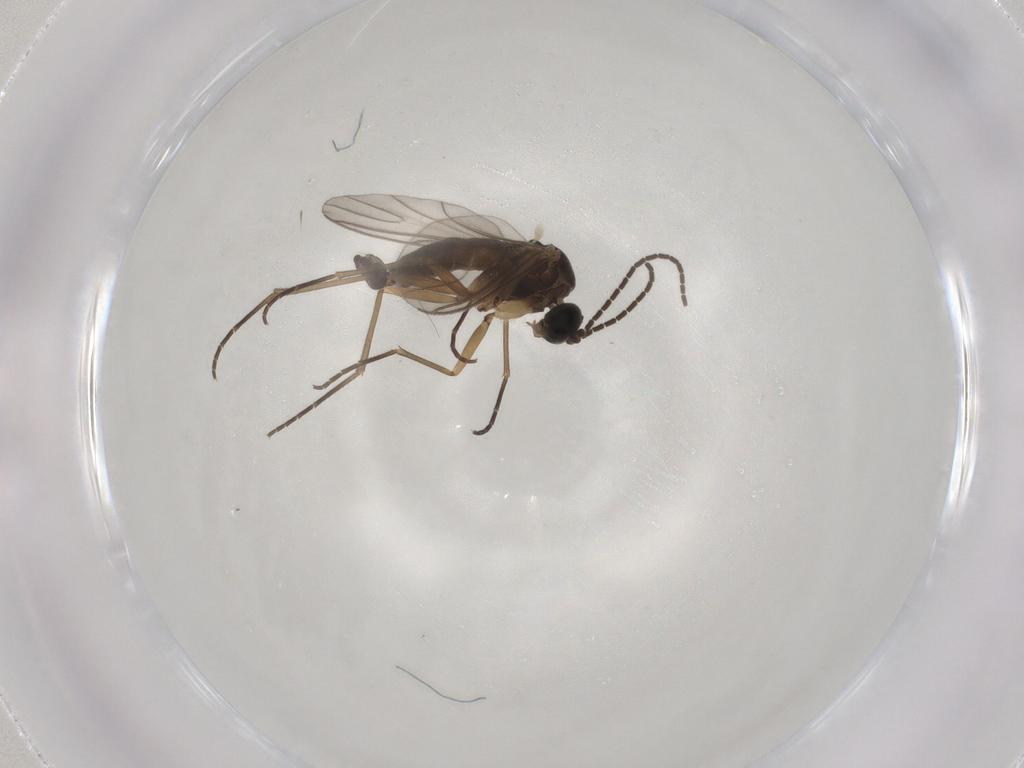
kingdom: Animalia
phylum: Arthropoda
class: Insecta
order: Diptera
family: Sciaridae
